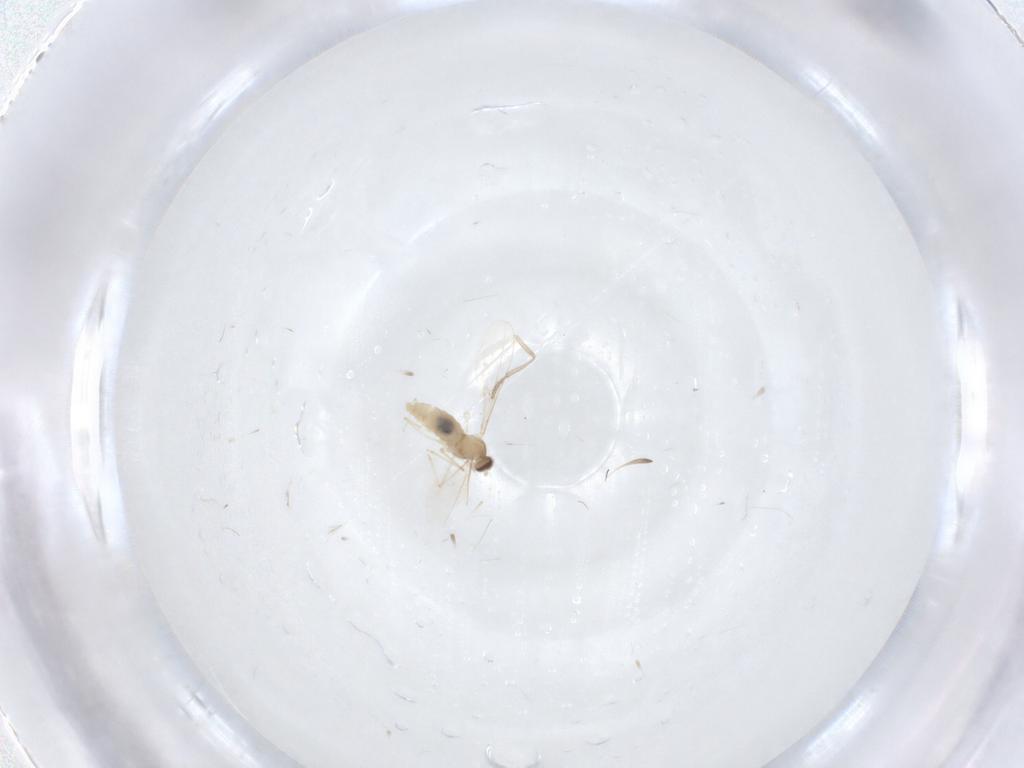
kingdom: Animalia
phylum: Arthropoda
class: Insecta
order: Diptera
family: Cecidomyiidae
